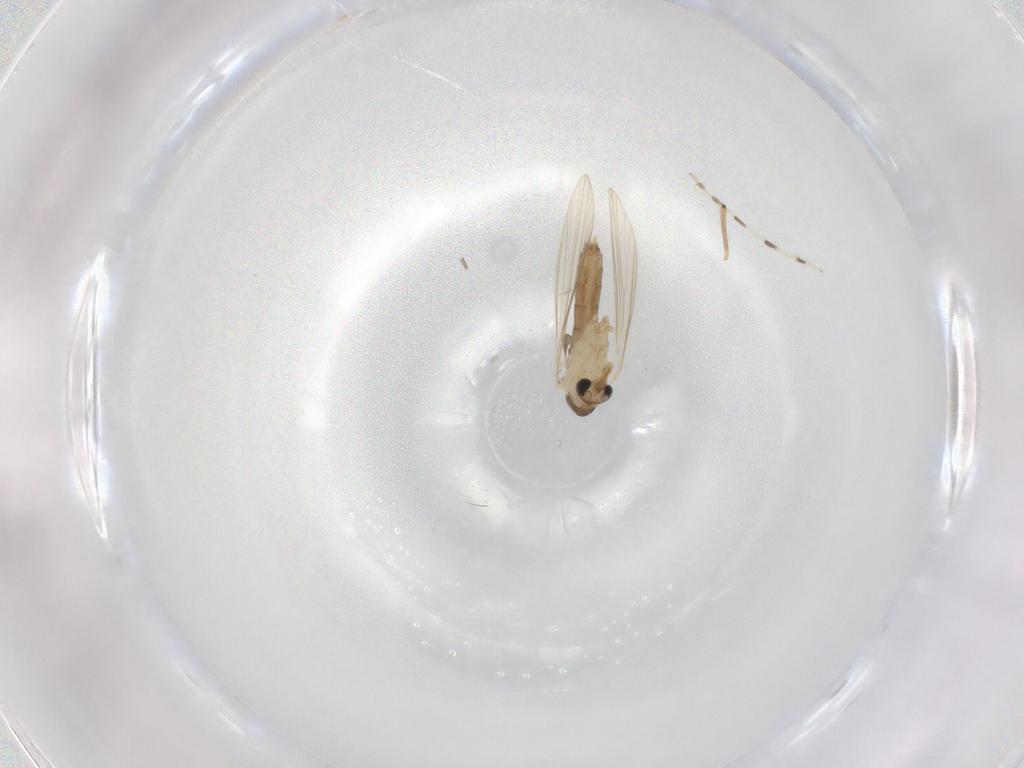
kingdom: Animalia
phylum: Arthropoda
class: Insecta
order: Diptera
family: Psychodidae
